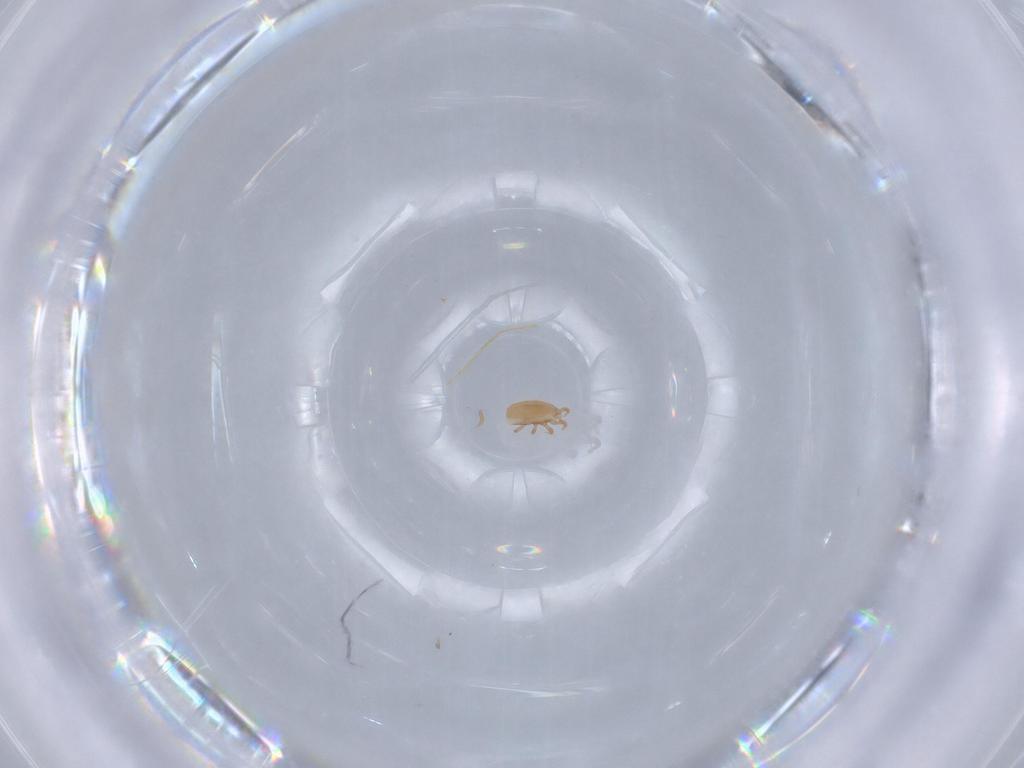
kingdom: Animalia
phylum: Arthropoda
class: Arachnida
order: Mesostigmata
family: Dinychidae
